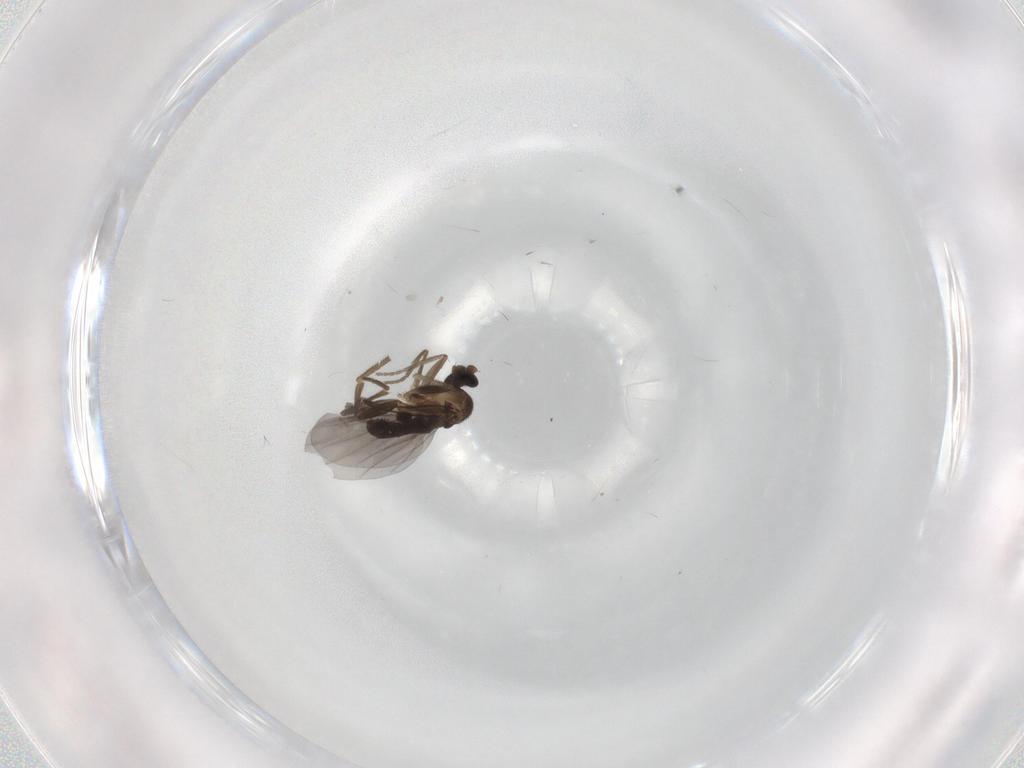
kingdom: Animalia
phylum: Arthropoda
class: Insecta
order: Diptera
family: Phoridae
